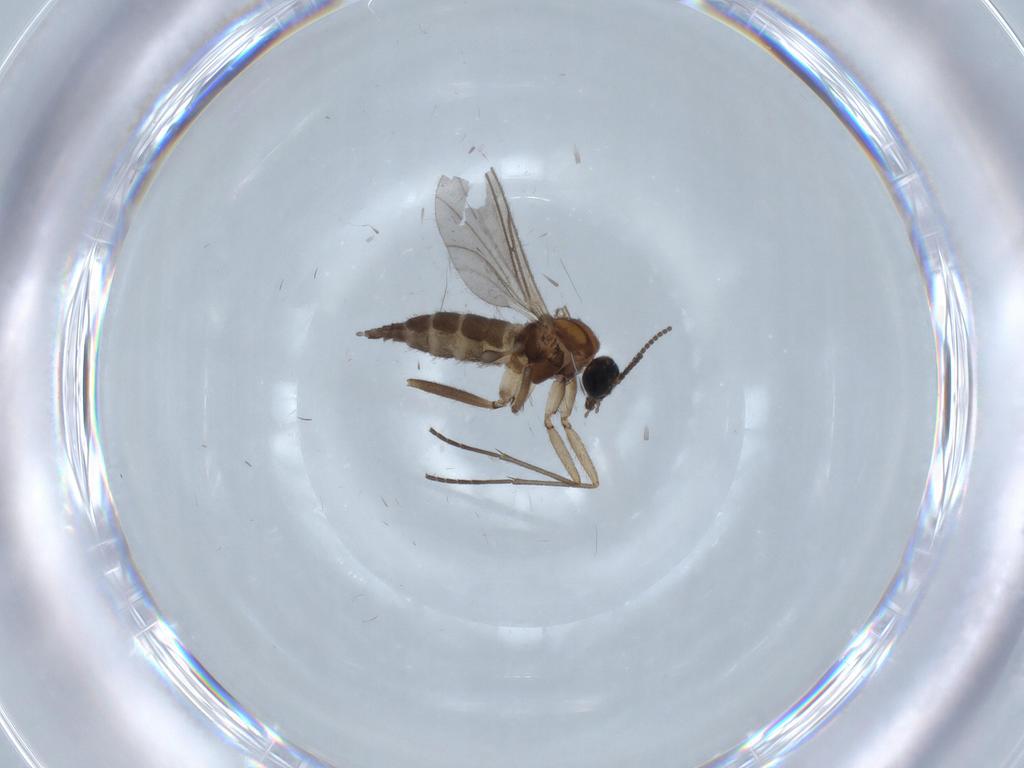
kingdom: Animalia
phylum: Arthropoda
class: Insecta
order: Diptera
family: Sciaridae
